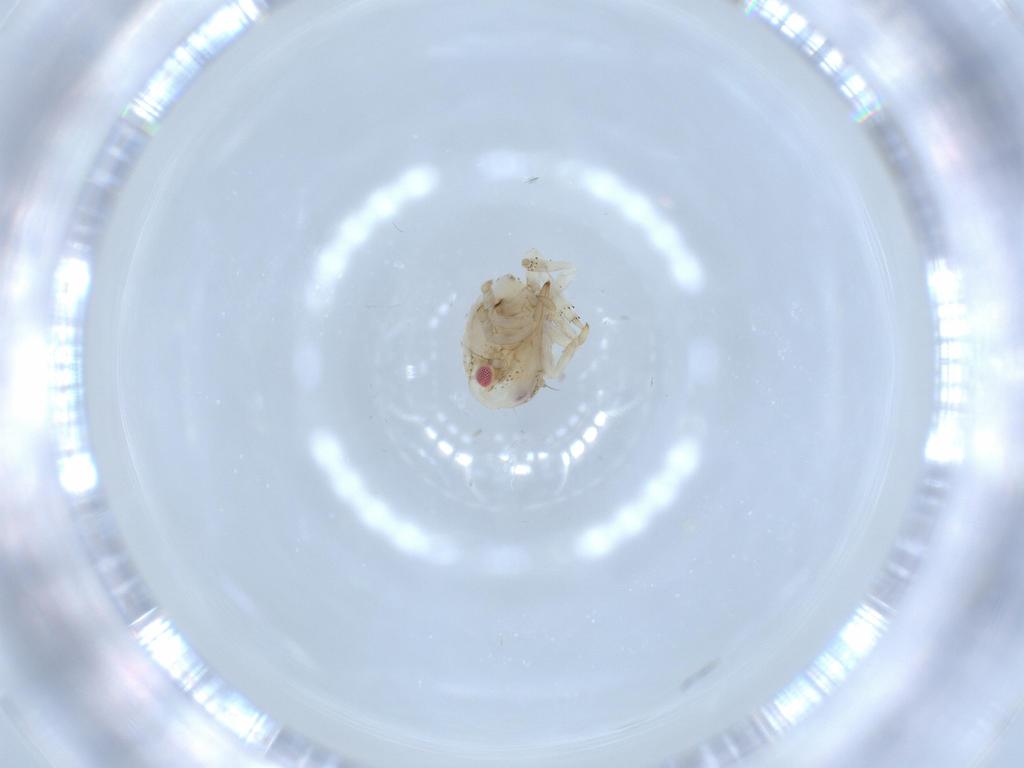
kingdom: Animalia
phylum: Arthropoda
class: Insecta
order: Hemiptera
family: Acanaloniidae
